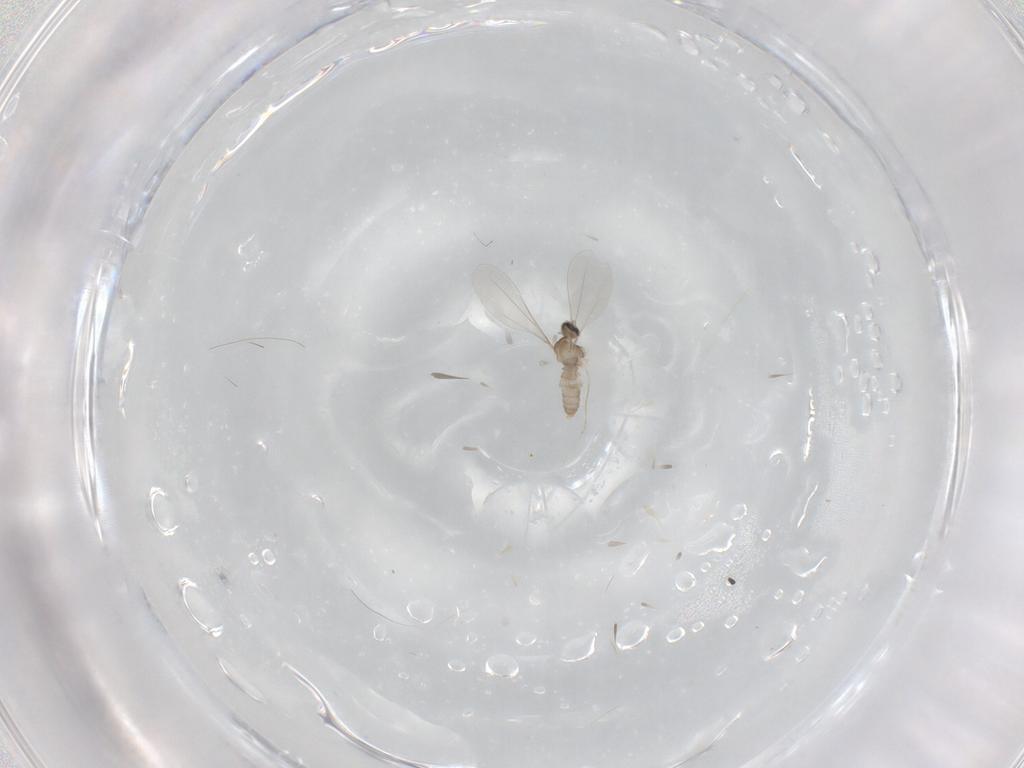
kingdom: Animalia
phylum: Arthropoda
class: Insecta
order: Diptera
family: Cecidomyiidae
